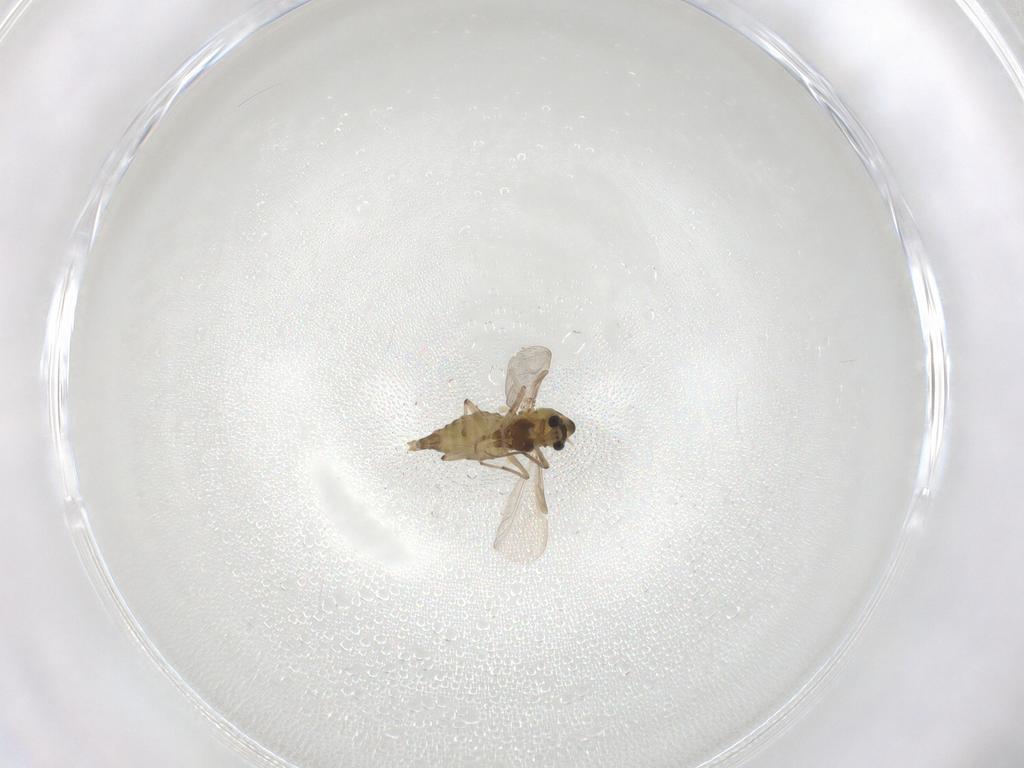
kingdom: Animalia
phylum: Arthropoda
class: Insecta
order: Diptera
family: Chironomidae
